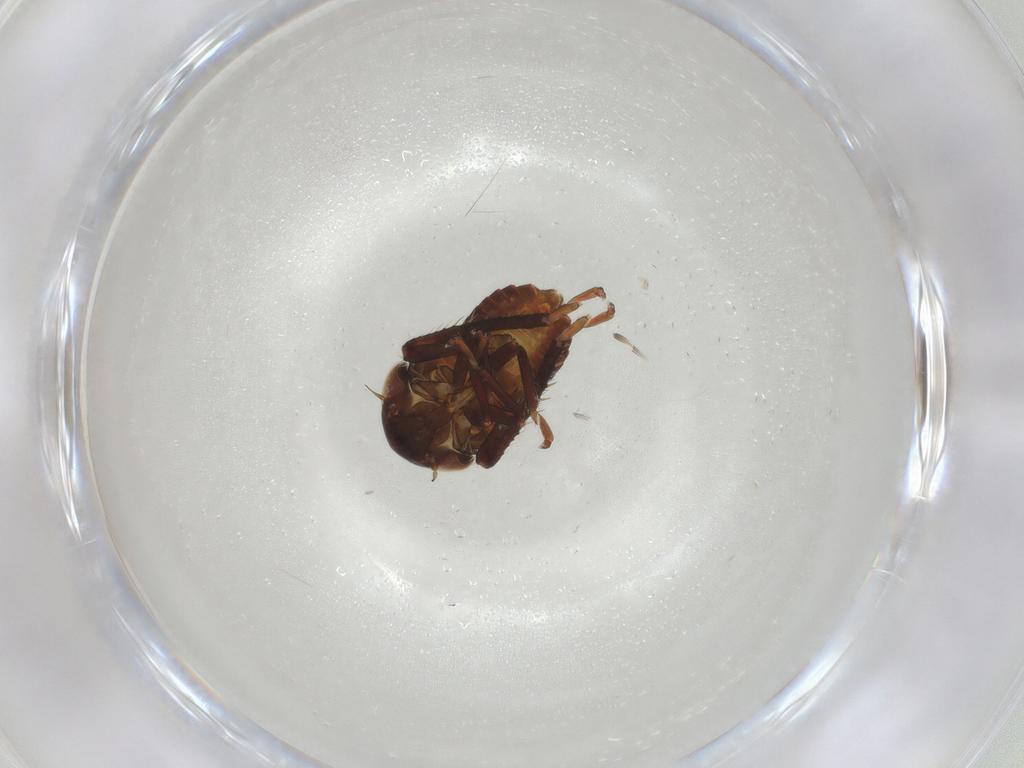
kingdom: Animalia
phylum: Arthropoda
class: Insecta
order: Hemiptera
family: Cicadellidae
